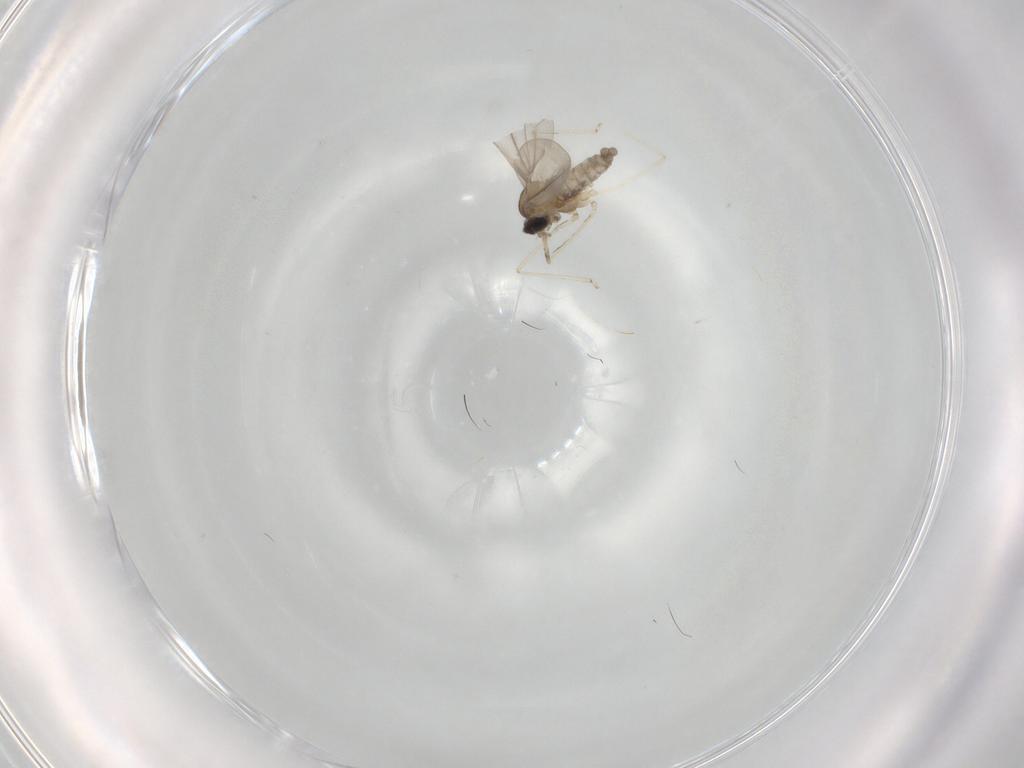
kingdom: Animalia
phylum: Arthropoda
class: Insecta
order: Diptera
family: Cecidomyiidae
